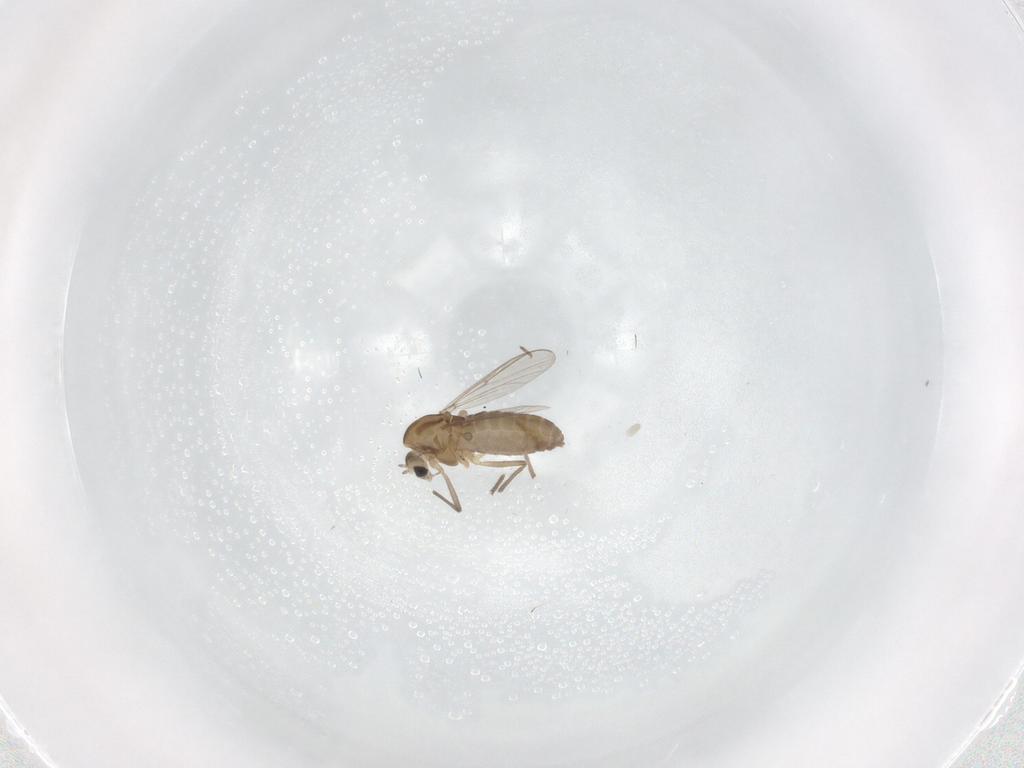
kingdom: Animalia
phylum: Arthropoda
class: Insecta
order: Diptera
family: Chironomidae
